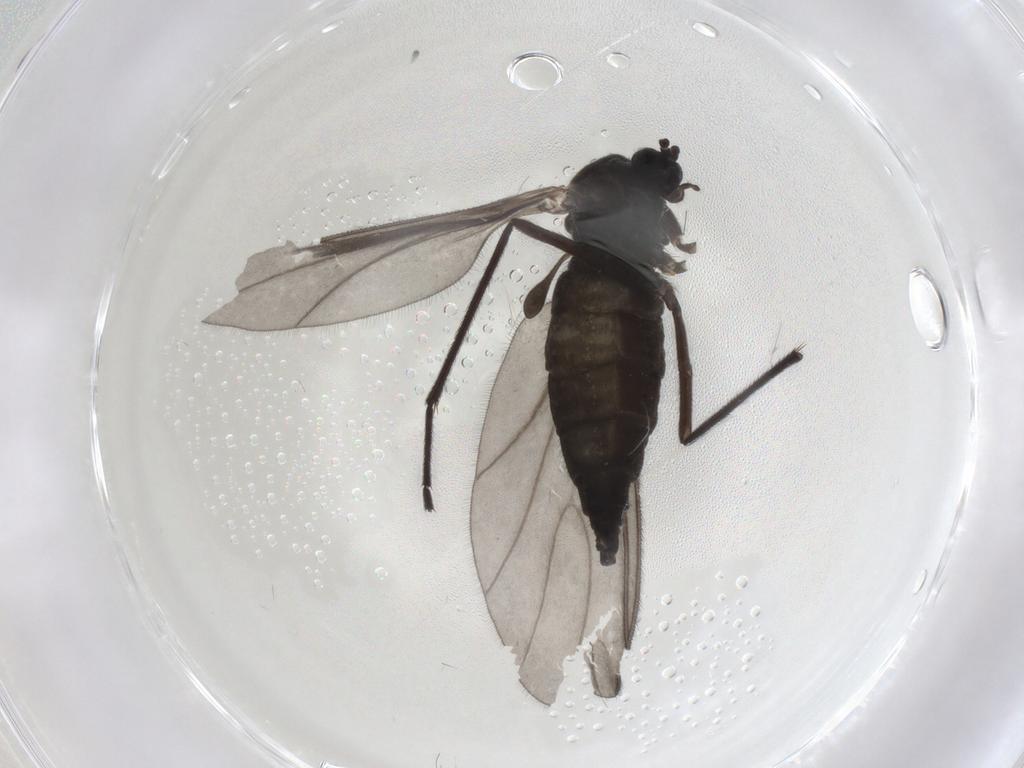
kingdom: Animalia
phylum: Arthropoda
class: Insecta
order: Diptera
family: Sciaridae
